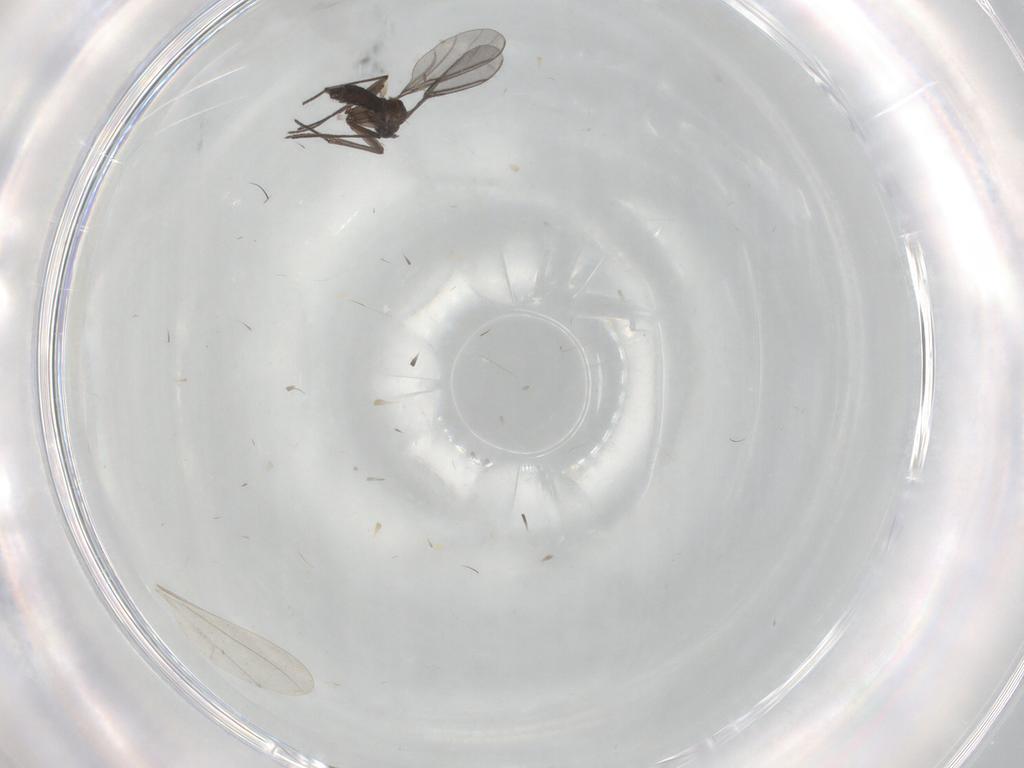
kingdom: Animalia
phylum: Arthropoda
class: Insecta
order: Diptera
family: Cecidomyiidae
